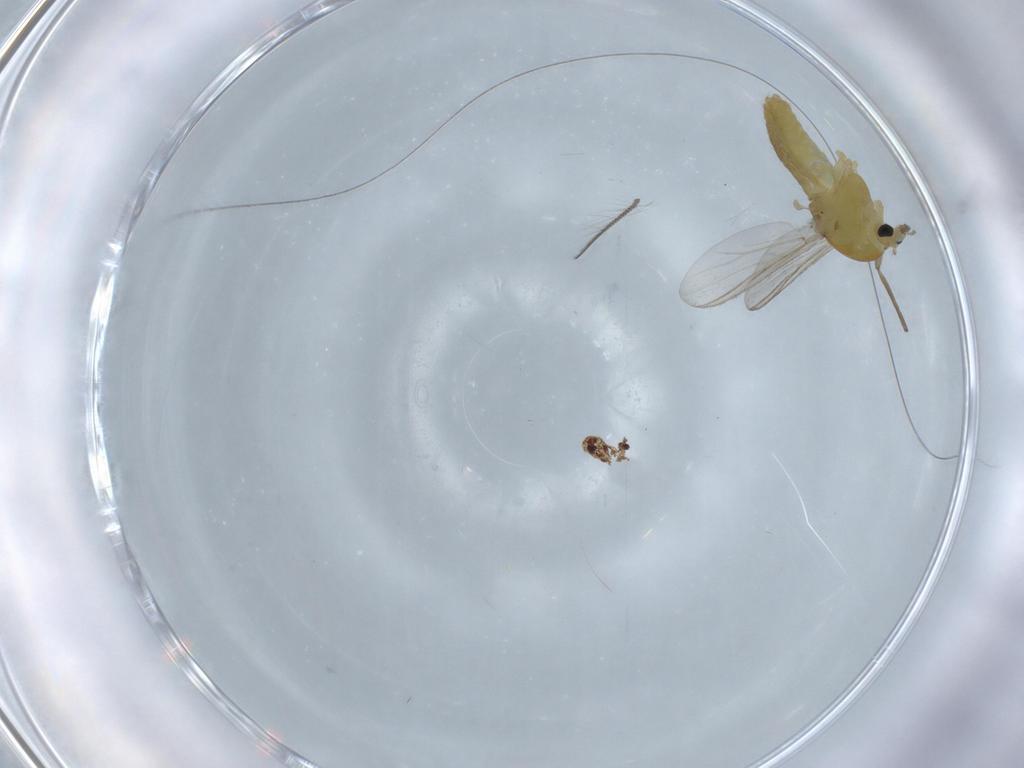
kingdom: Animalia
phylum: Arthropoda
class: Insecta
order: Diptera
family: Chironomidae
